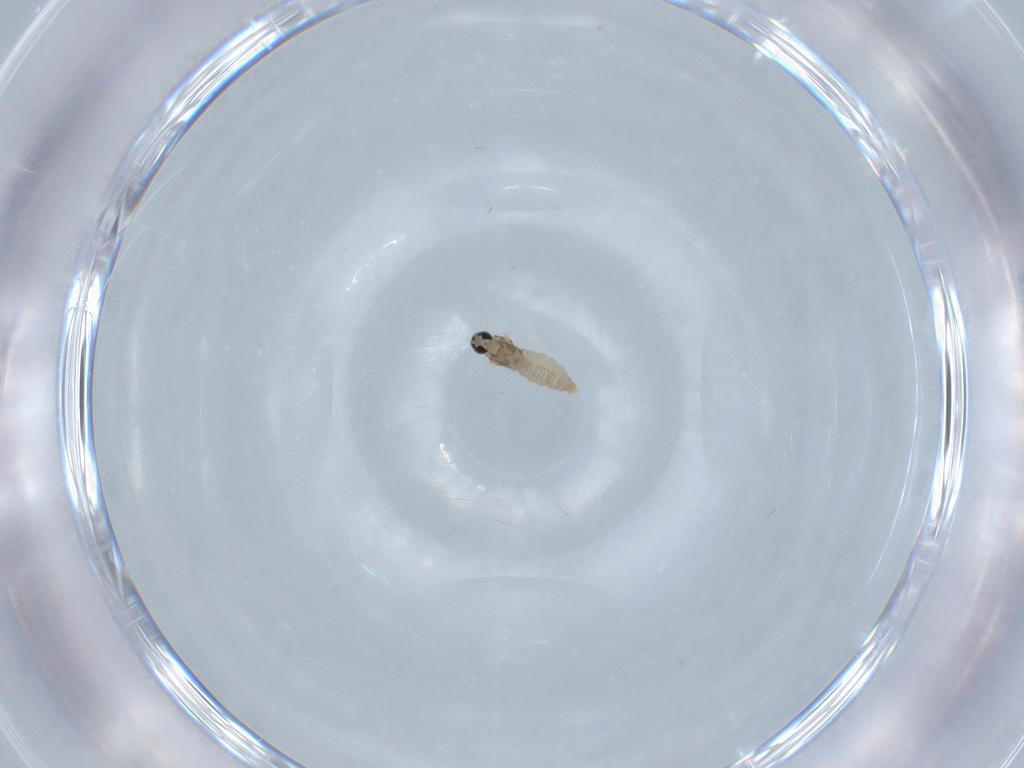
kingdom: Animalia
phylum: Arthropoda
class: Insecta
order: Diptera
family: Cecidomyiidae
